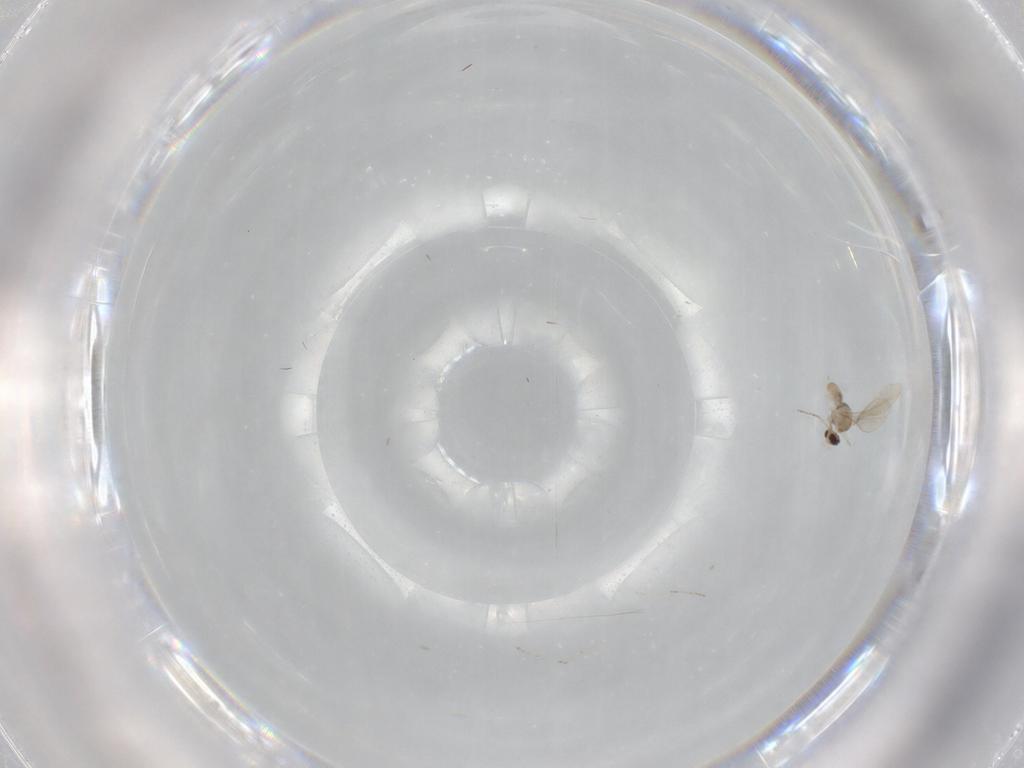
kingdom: Animalia
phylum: Arthropoda
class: Insecta
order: Diptera
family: Cecidomyiidae
